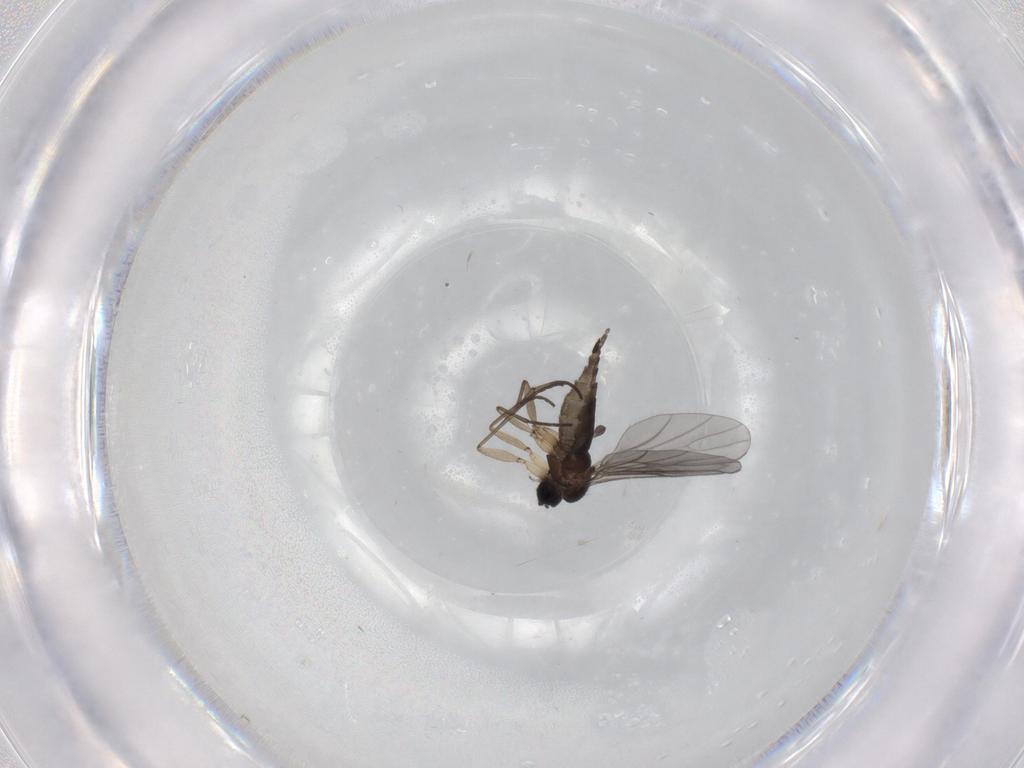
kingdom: Animalia
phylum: Arthropoda
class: Insecta
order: Diptera
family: Sciaridae
